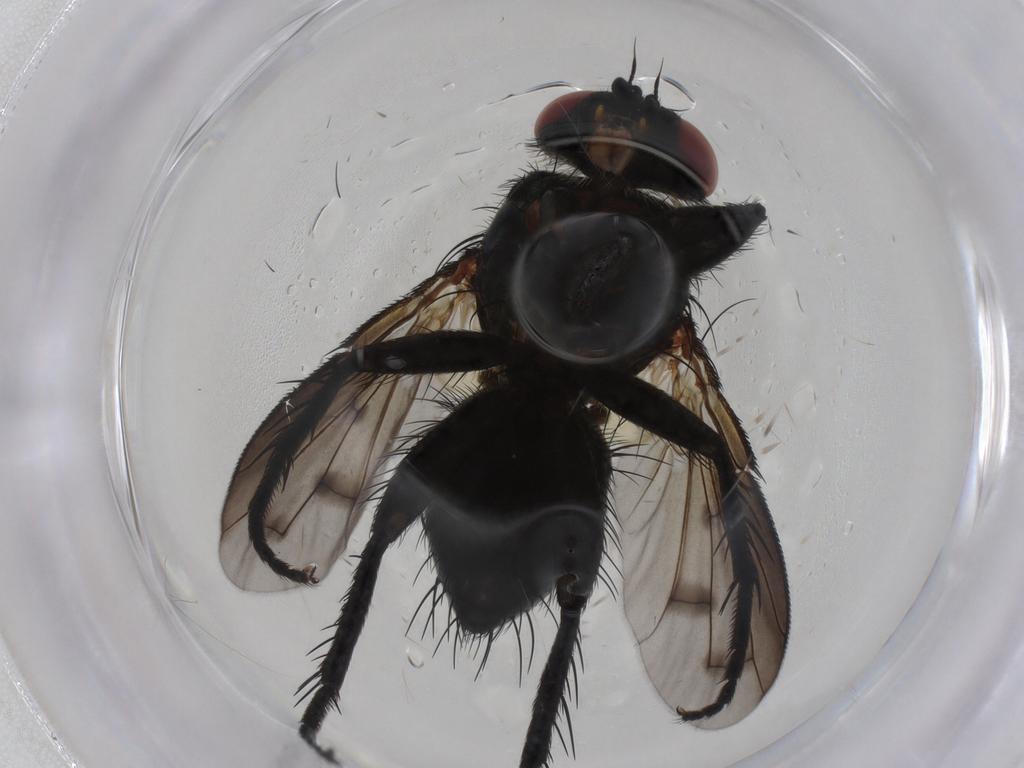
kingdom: Animalia
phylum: Arthropoda
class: Insecta
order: Diptera
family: Tachinidae
